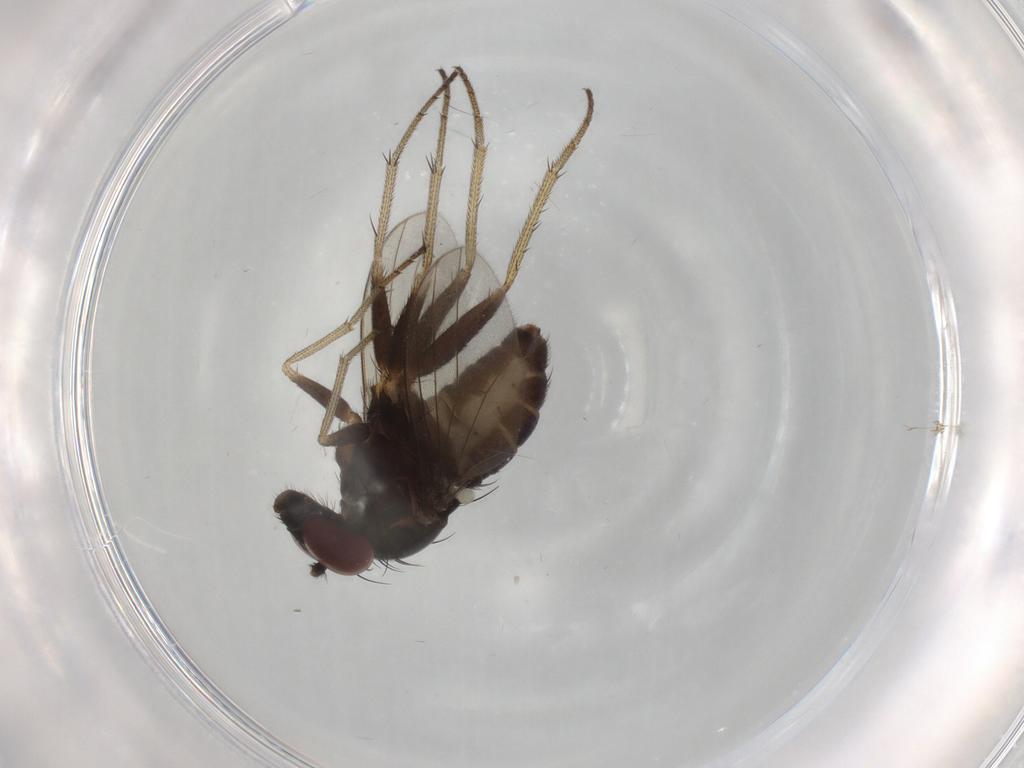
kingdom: Animalia
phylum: Arthropoda
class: Insecta
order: Diptera
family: Dolichopodidae
